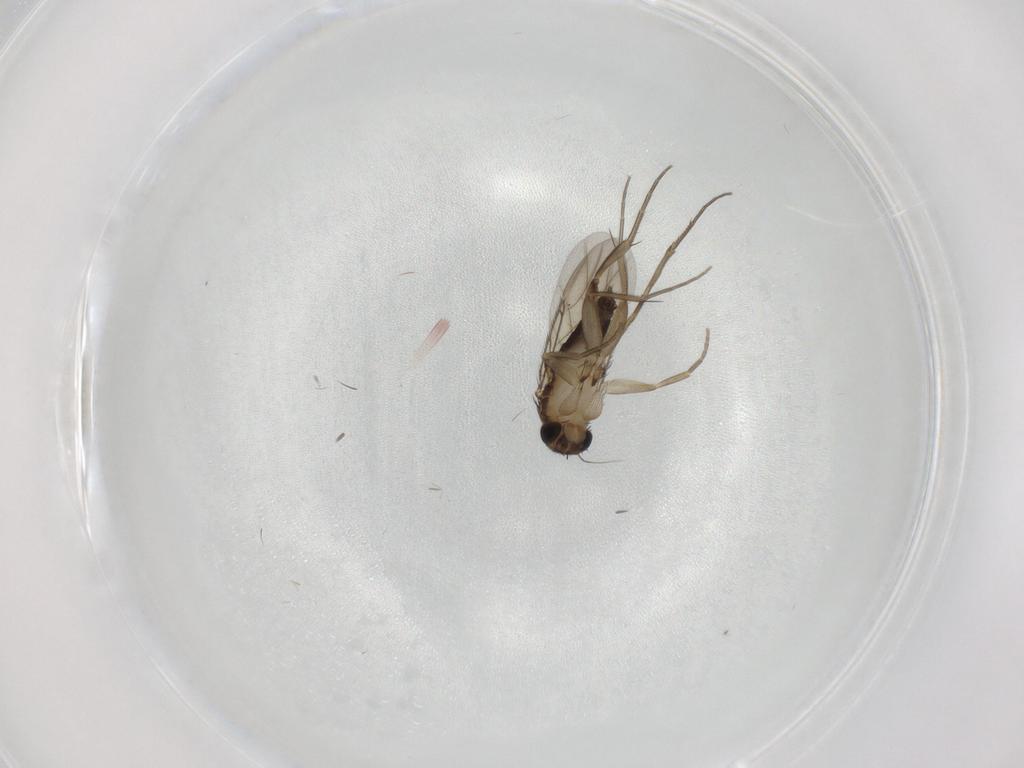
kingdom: Animalia
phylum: Arthropoda
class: Insecta
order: Diptera
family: Phoridae
